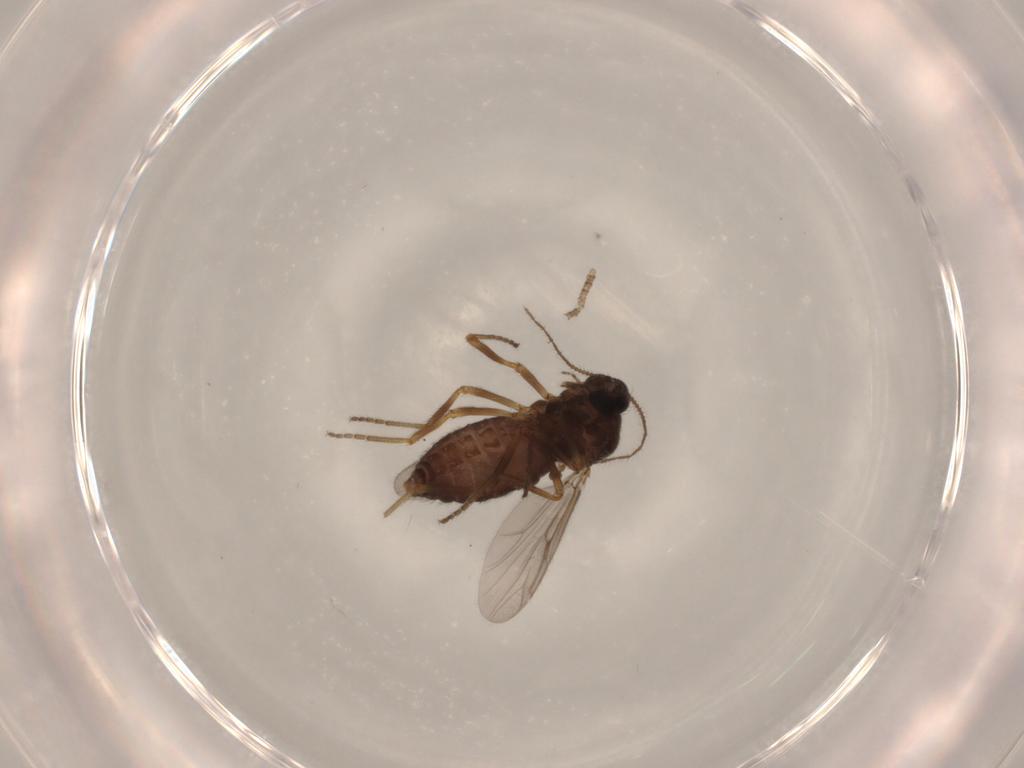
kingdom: Animalia
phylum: Arthropoda
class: Insecta
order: Diptera
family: Ceratopogonidae
